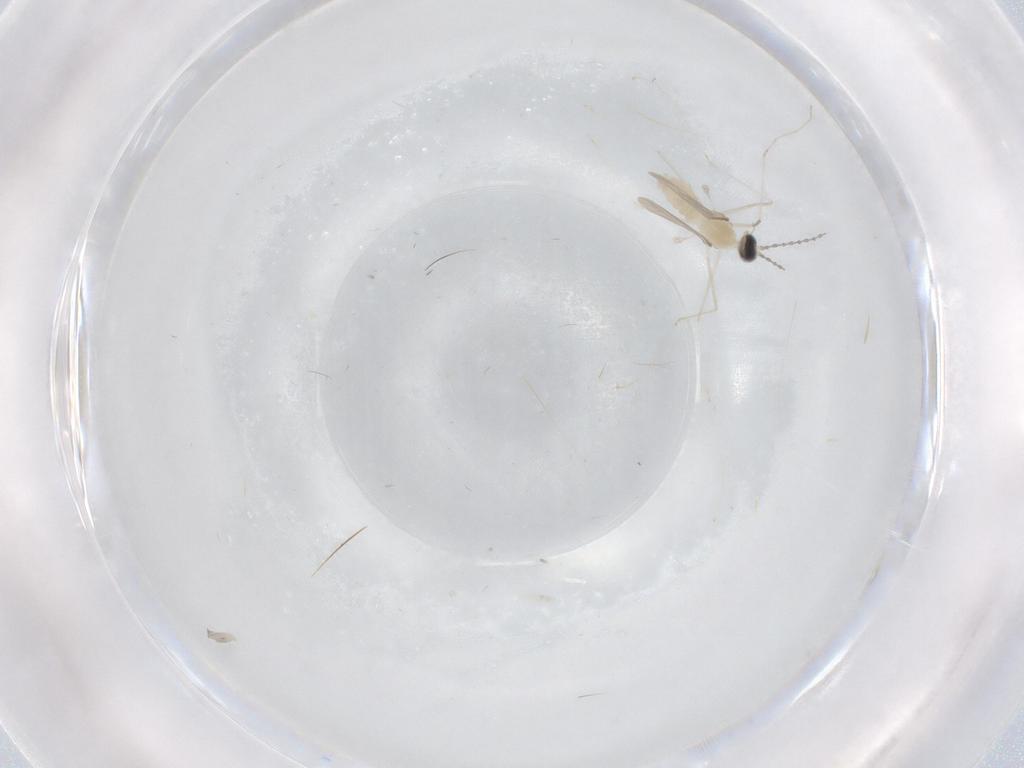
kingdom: Animalia
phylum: Arthropoda
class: Insecta
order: Diptera
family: Cecidomyiidae
